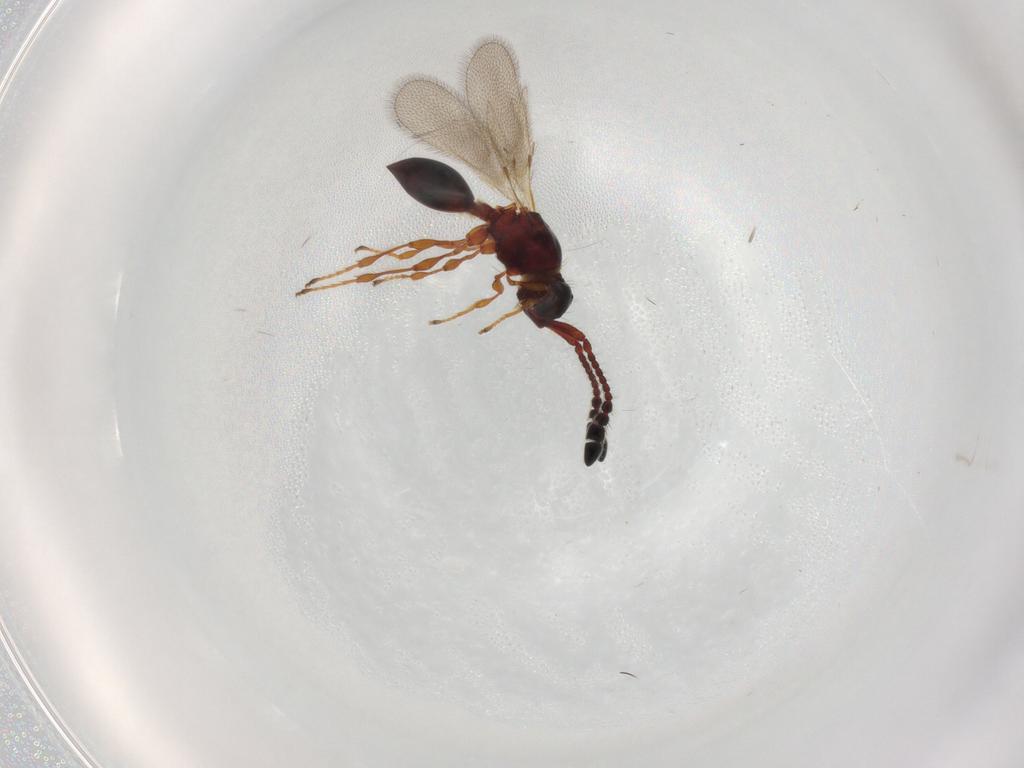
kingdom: Animalia
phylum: Arthropoda
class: Insecta
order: Hymenoptera
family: Diapriidae
